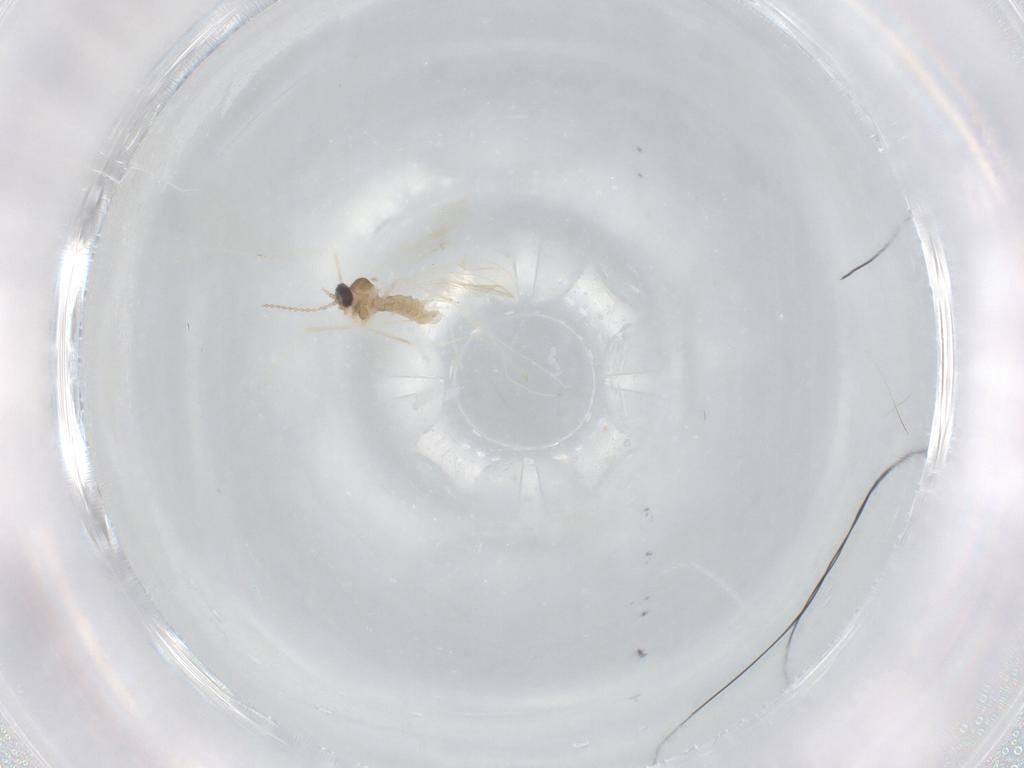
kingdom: Animalia
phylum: Arthropoda
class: Insecta
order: Diptera
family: Cecidomyiidae
